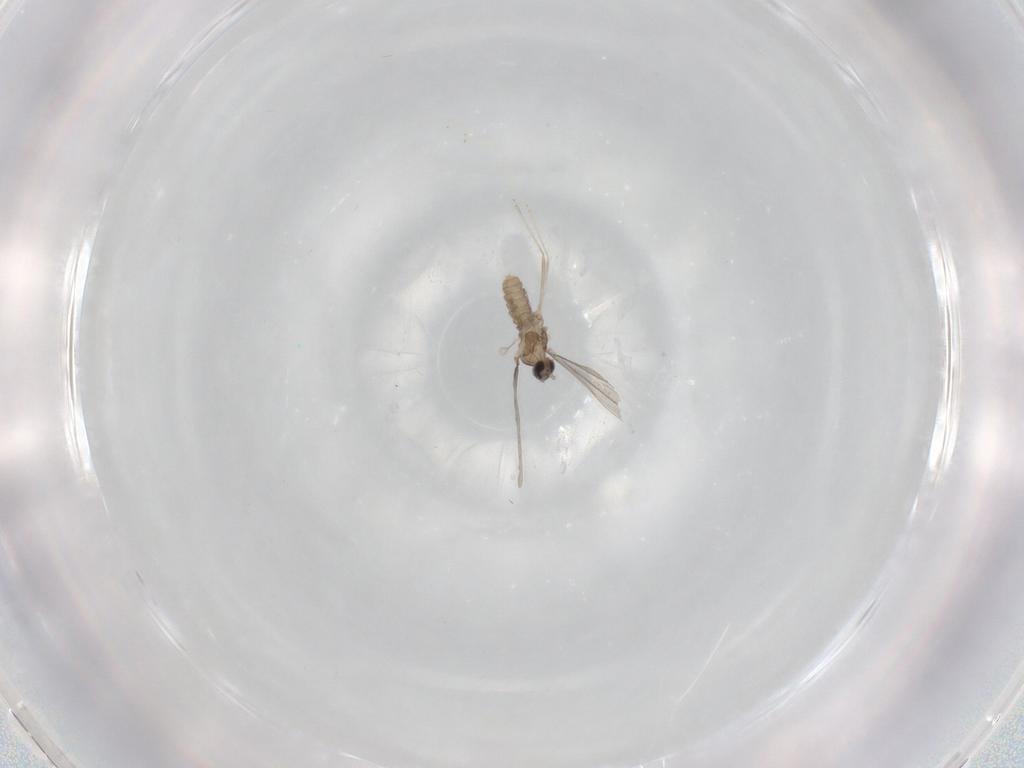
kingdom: Animalia
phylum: Arthropoda
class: Insecta
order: Diptera
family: Cecidomyiidae
